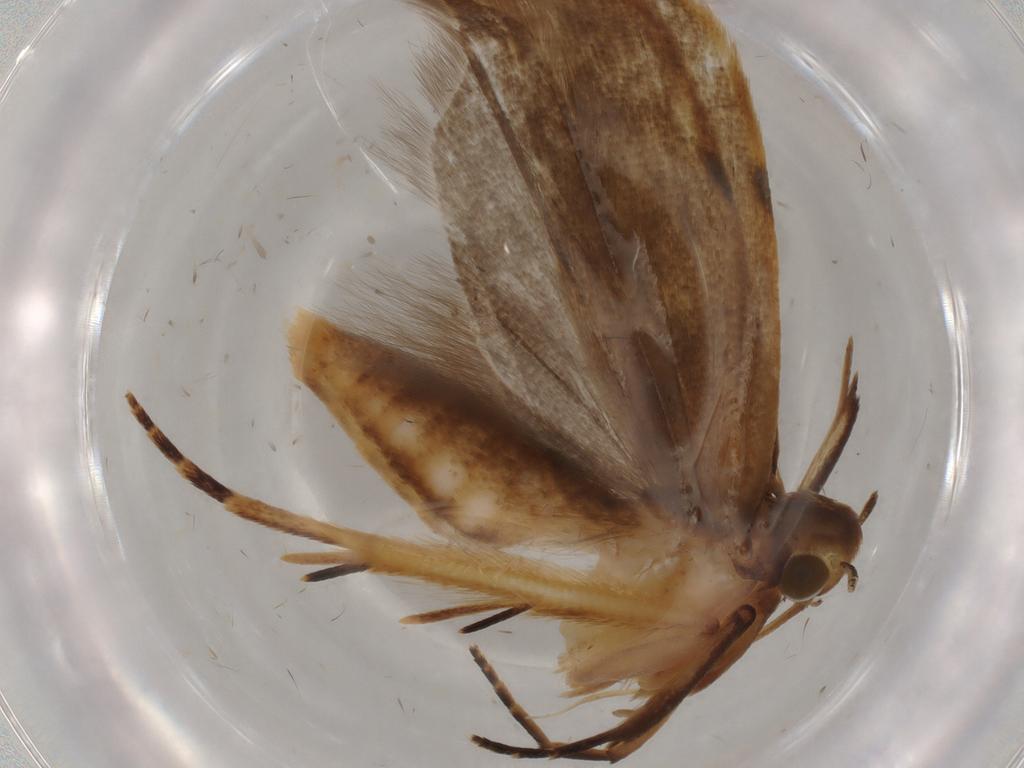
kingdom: Animalia
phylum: Arthropoda
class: Insecta
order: Lepidoptera
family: Geometridae
